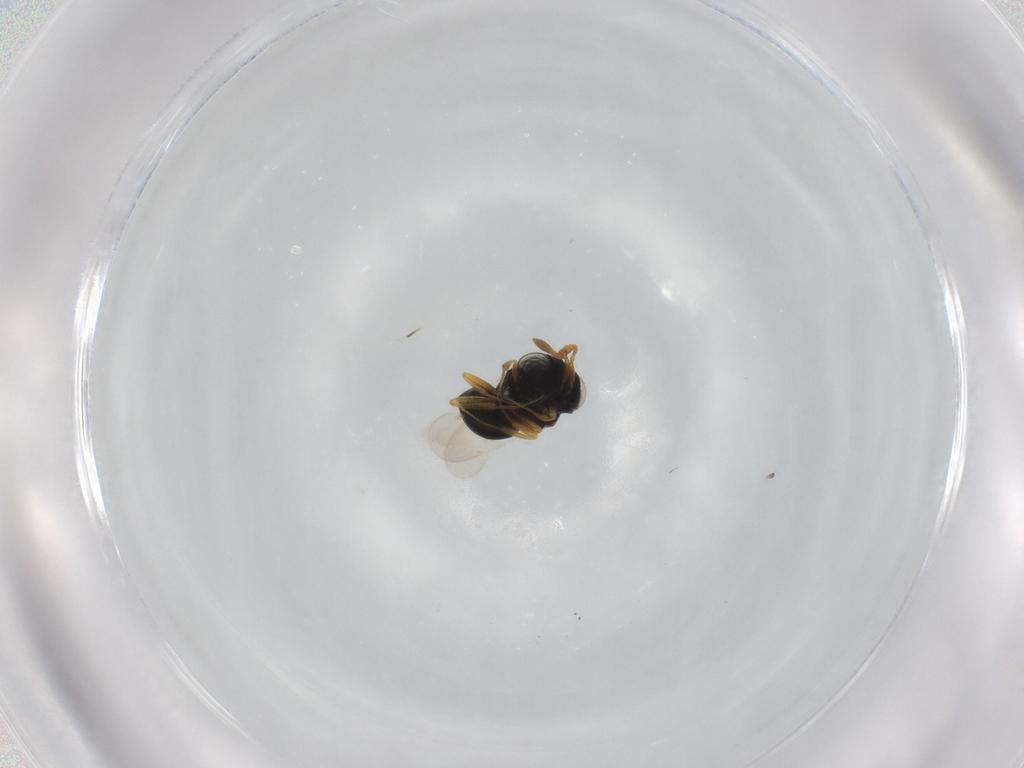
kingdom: Animalia
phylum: Arthropoda
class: Insecta
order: Hymenoptera
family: Scelionidae
